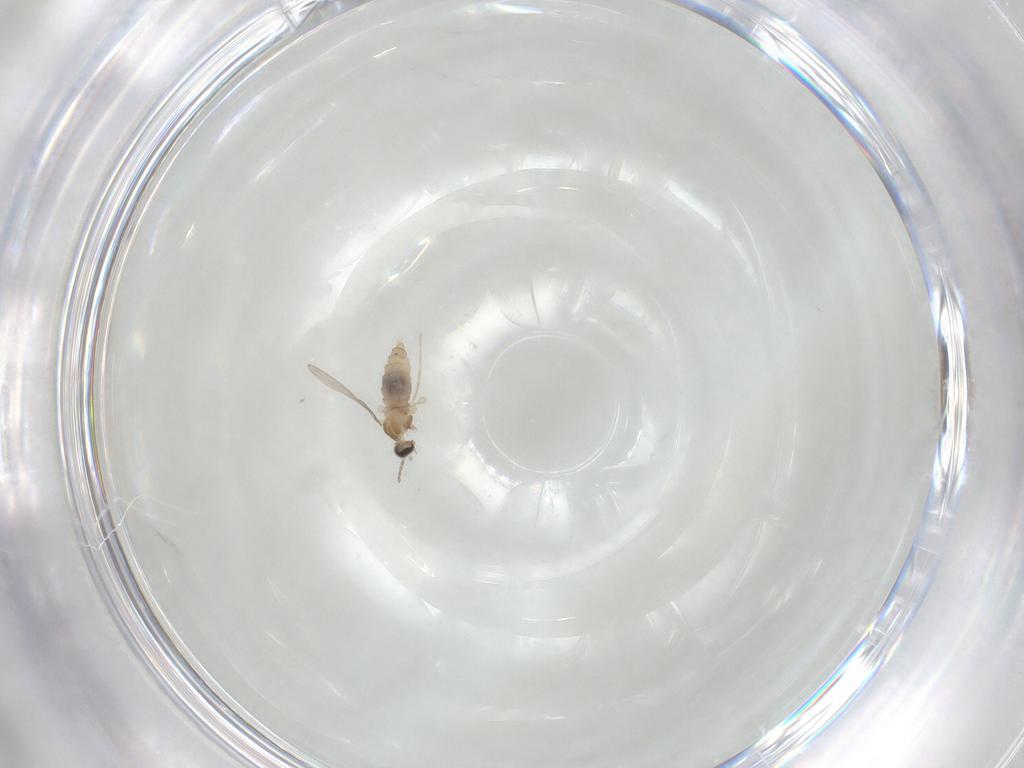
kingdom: Animalia
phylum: Arthropoda
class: Insecta
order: Diptera
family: Cecidomyiidae
